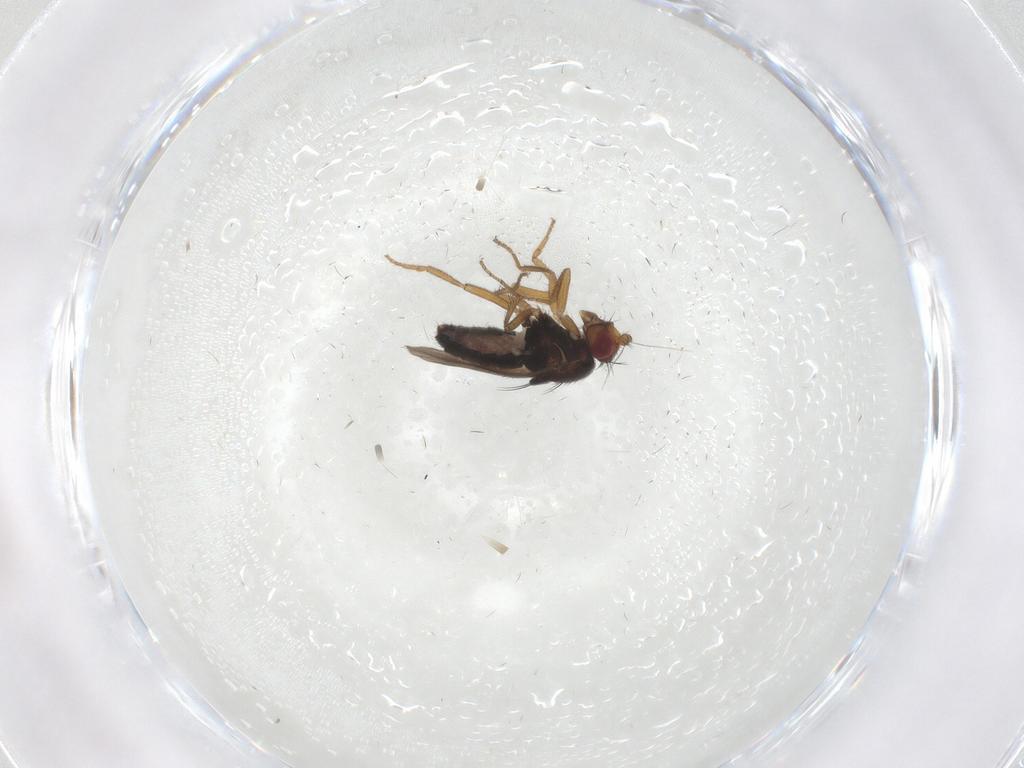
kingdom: Animalia
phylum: Arthropoda
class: Insecta
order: Diptera
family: Sphaeroceridae
